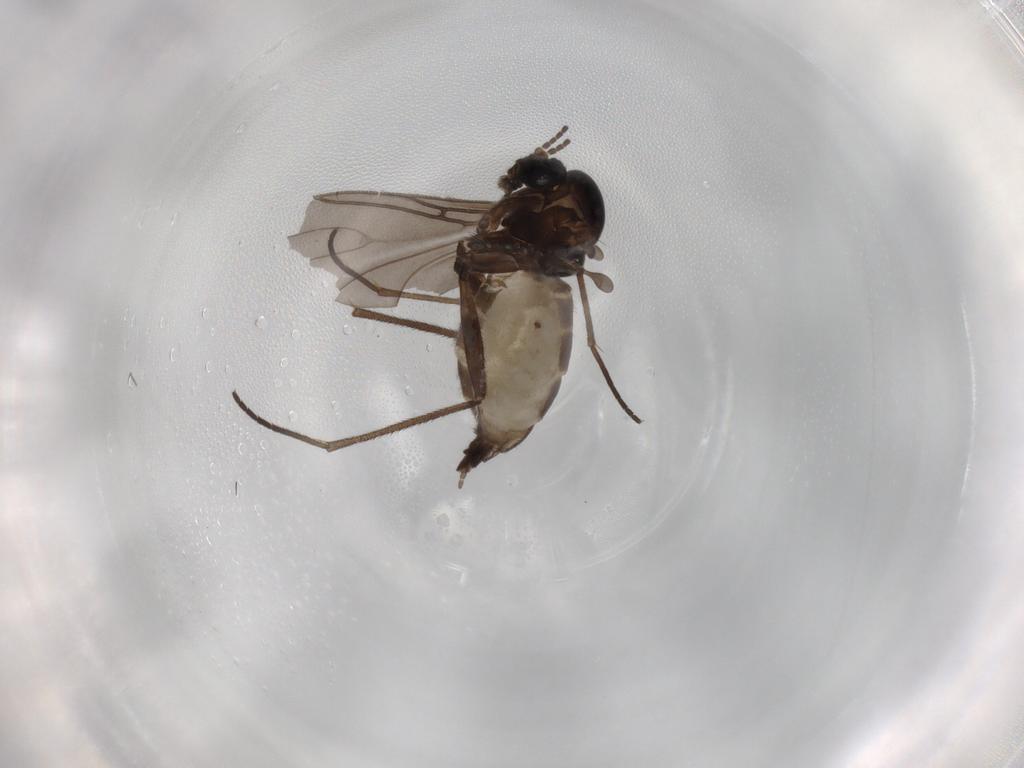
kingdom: Animalia
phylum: Arthropoda
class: Insecta
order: Diptera
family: Sciaridae
